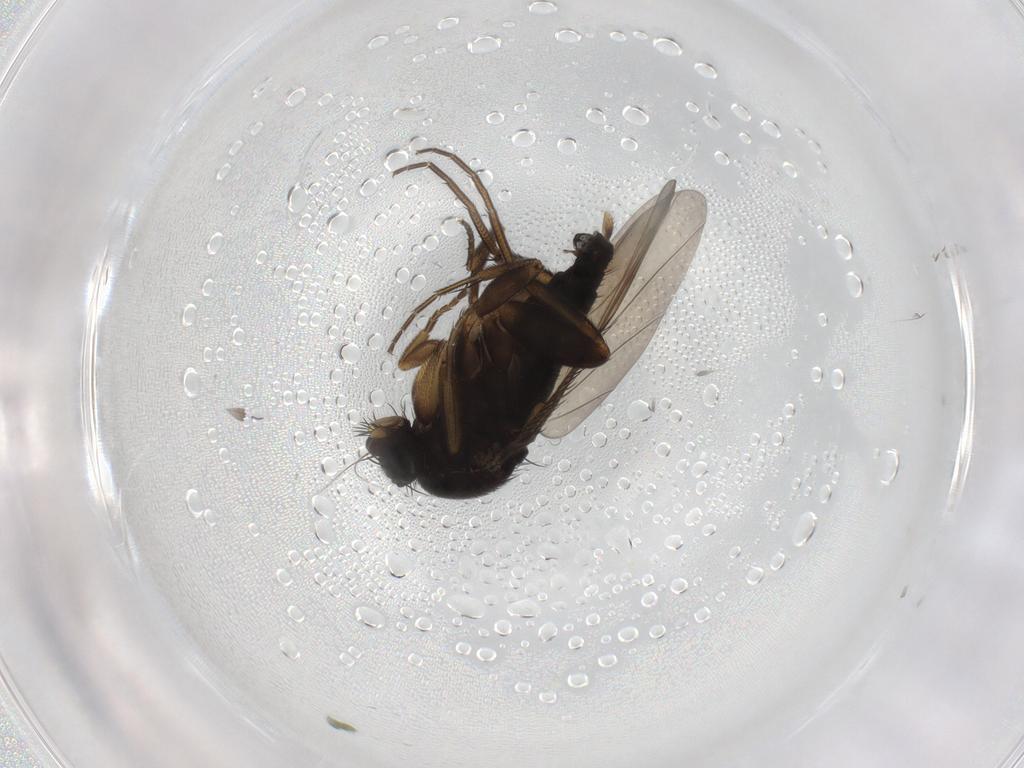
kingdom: Animalia
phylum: Arthropoda
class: Insecta
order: Diptera
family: Phoridae
